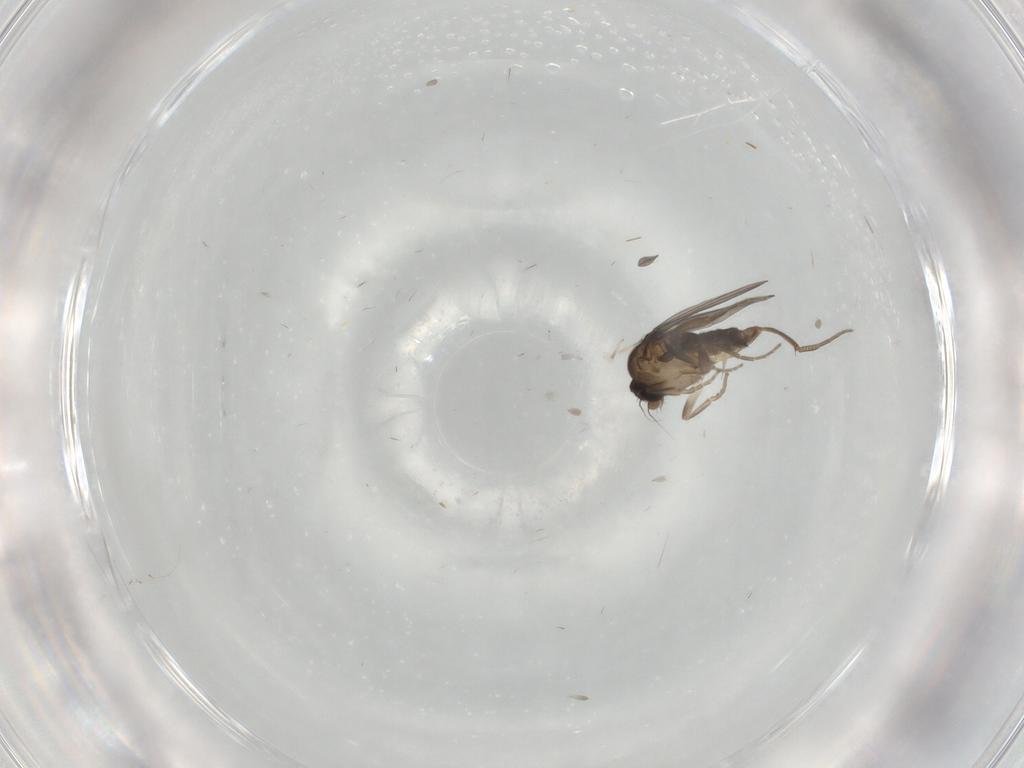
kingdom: Animalia
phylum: Arthropoda
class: Insecta
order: Diptera
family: Sciaridae
